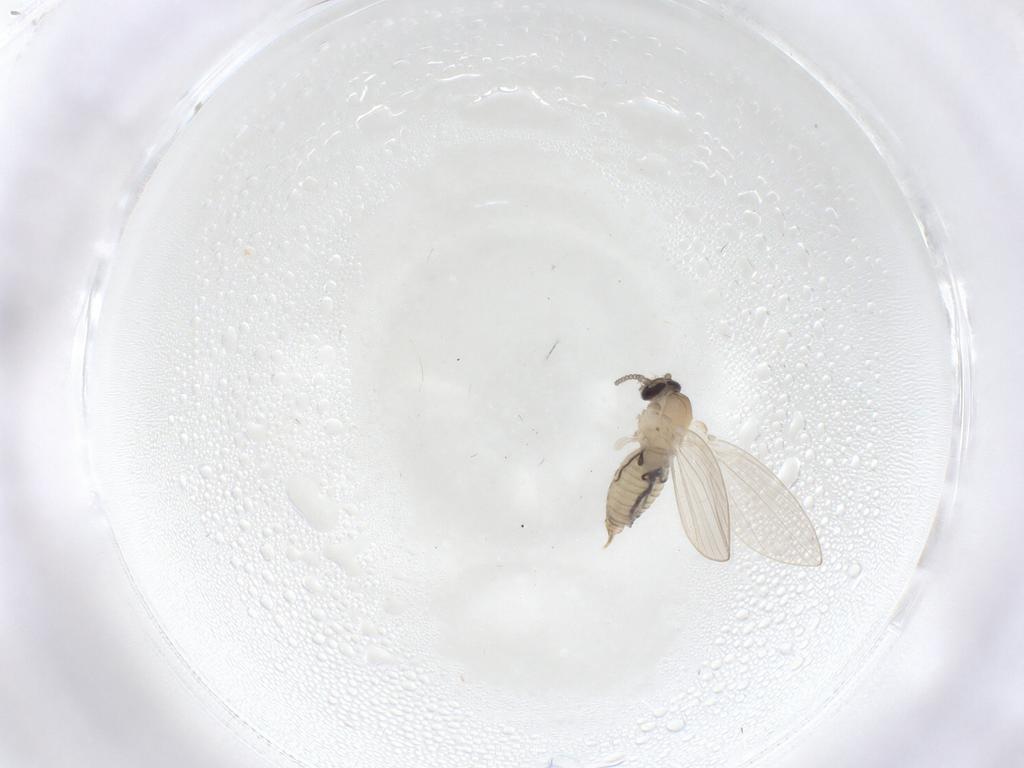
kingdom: Animalia
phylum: Arthropoda
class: Insecta
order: Diptera
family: Psychodidae
